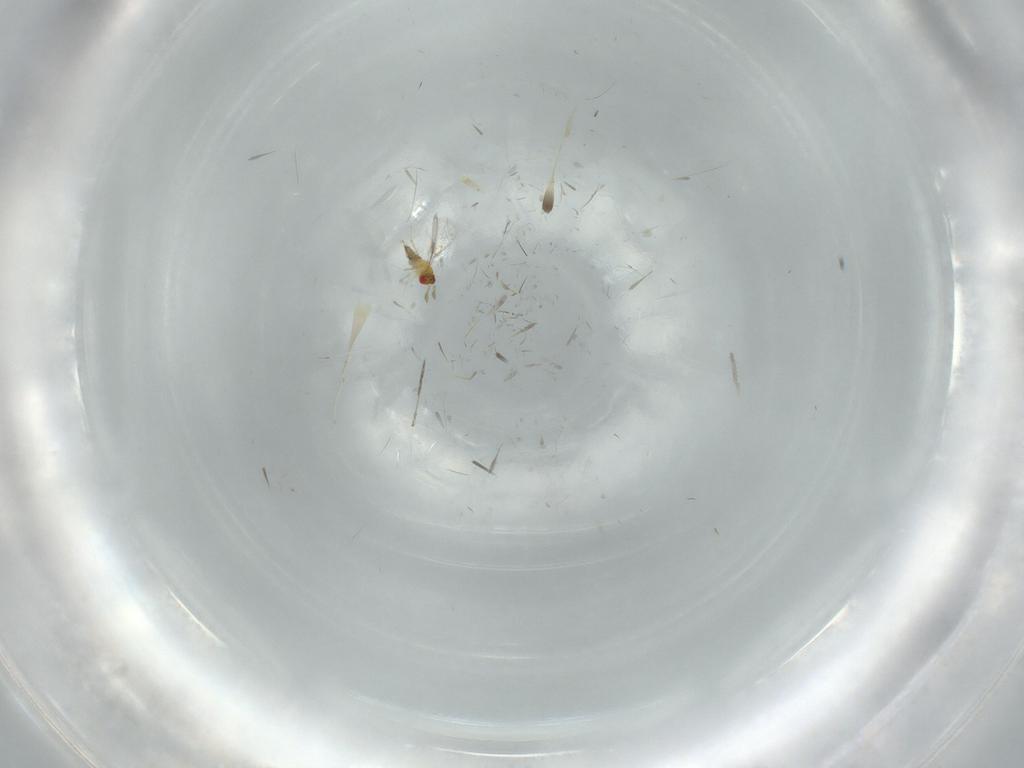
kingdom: Animalia
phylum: Arthropoda
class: Insecta
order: Hymenoptera
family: Trichogrammatidae
